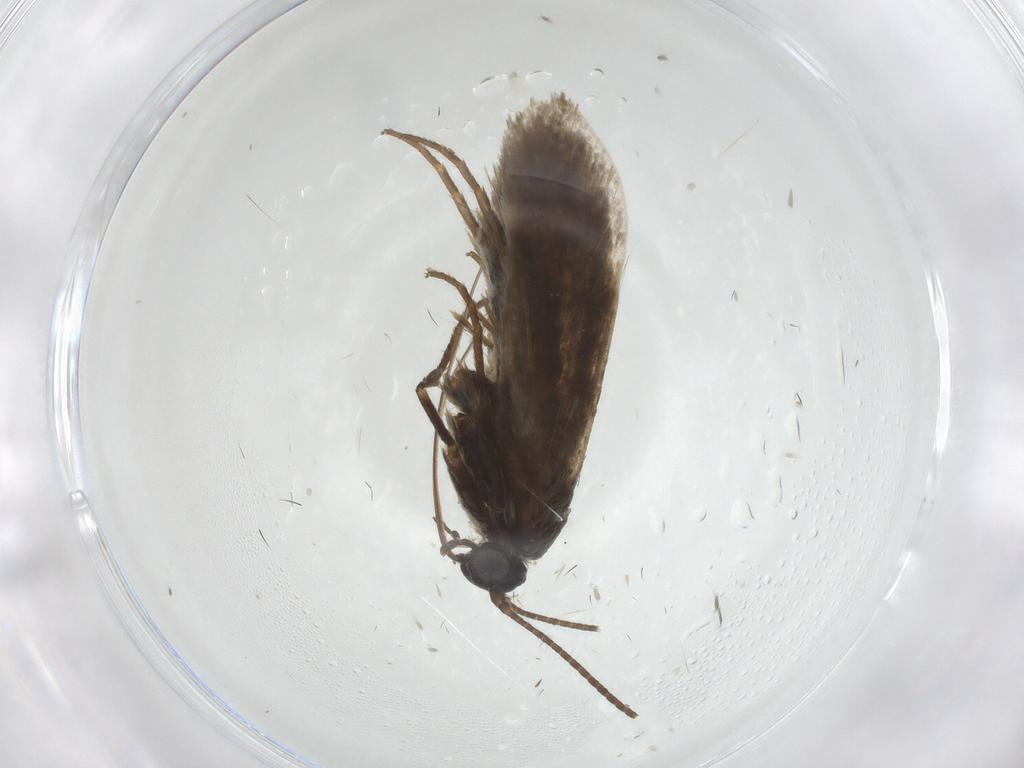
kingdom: Animalia
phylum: Arthropoda
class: Insecta
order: Lepidoptera
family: Adelidae
